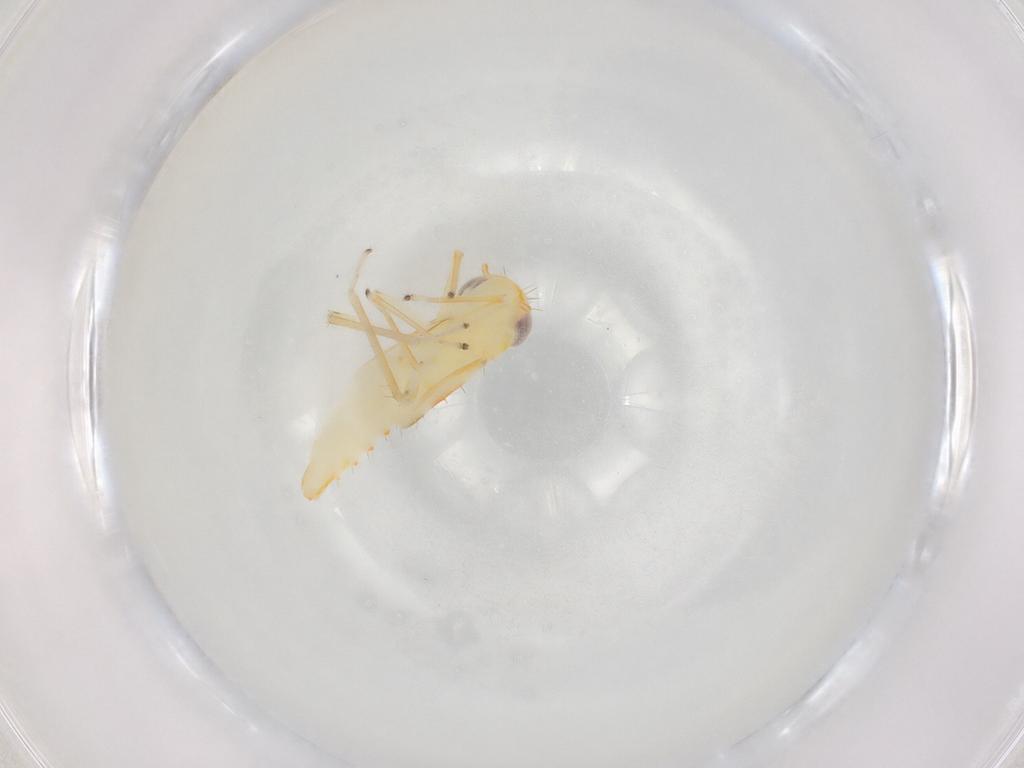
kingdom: Animalia
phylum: Arthropoda
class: Insecta
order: Hemiptera
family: Cicadellidae
